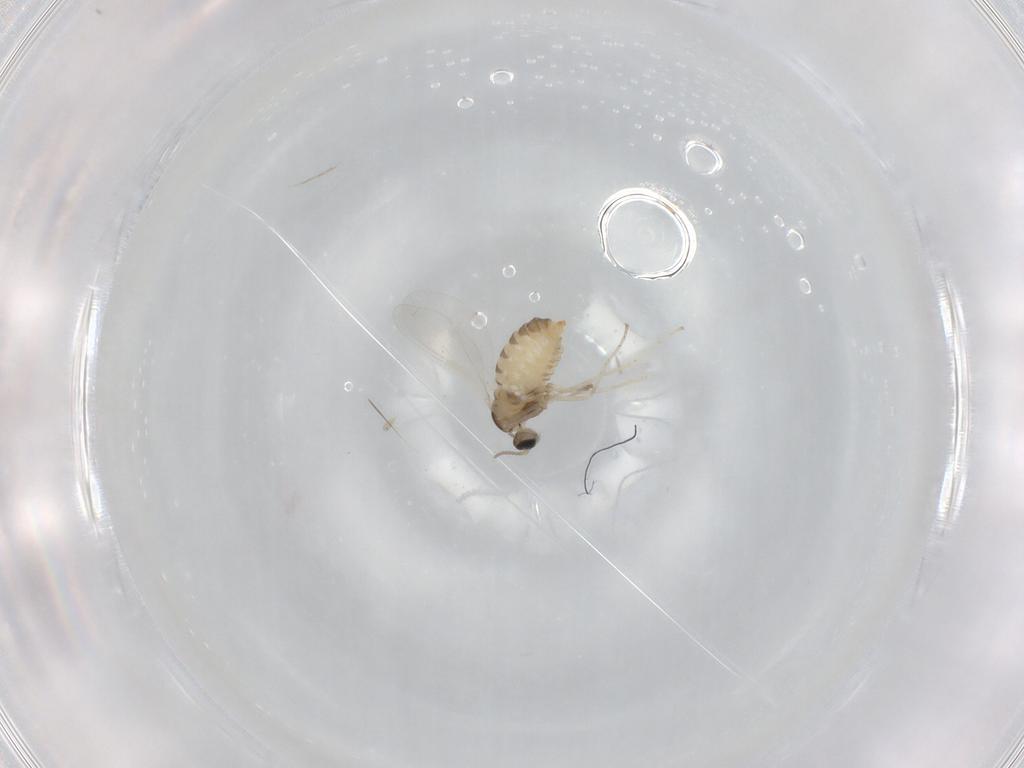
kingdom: Animalia
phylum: Arthropoda
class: Insecta
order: Diptera
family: Cecidomyiidae
